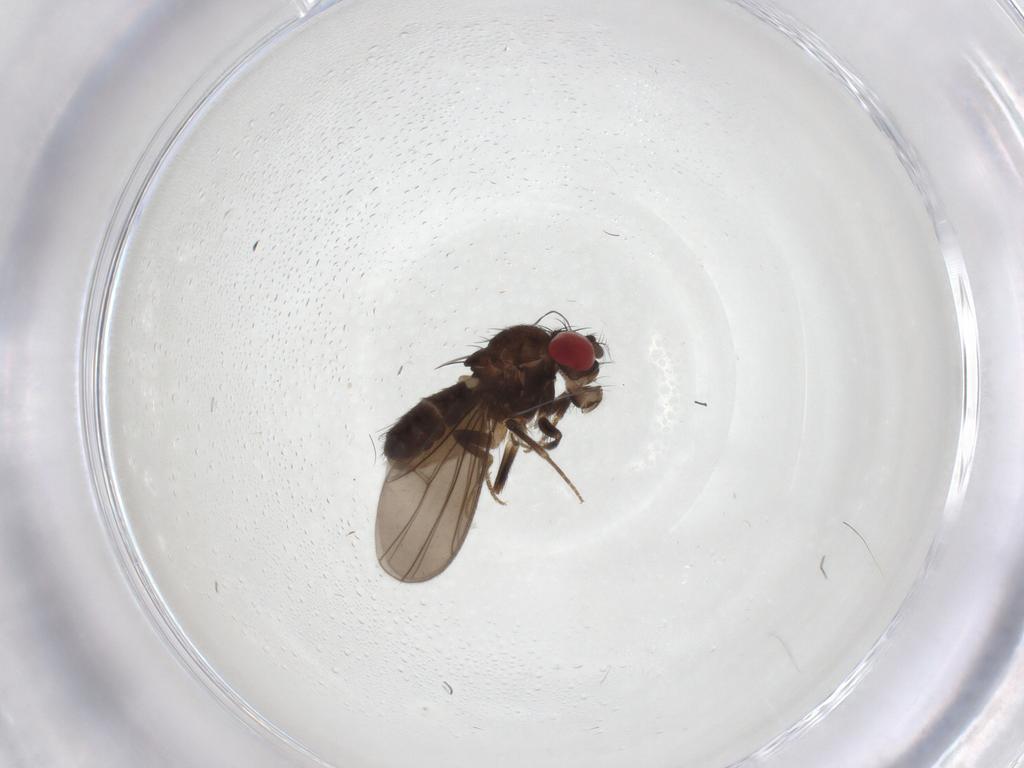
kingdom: Animalia
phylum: Arthropoda
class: Insecta
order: Diptera
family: Drosophilidae
